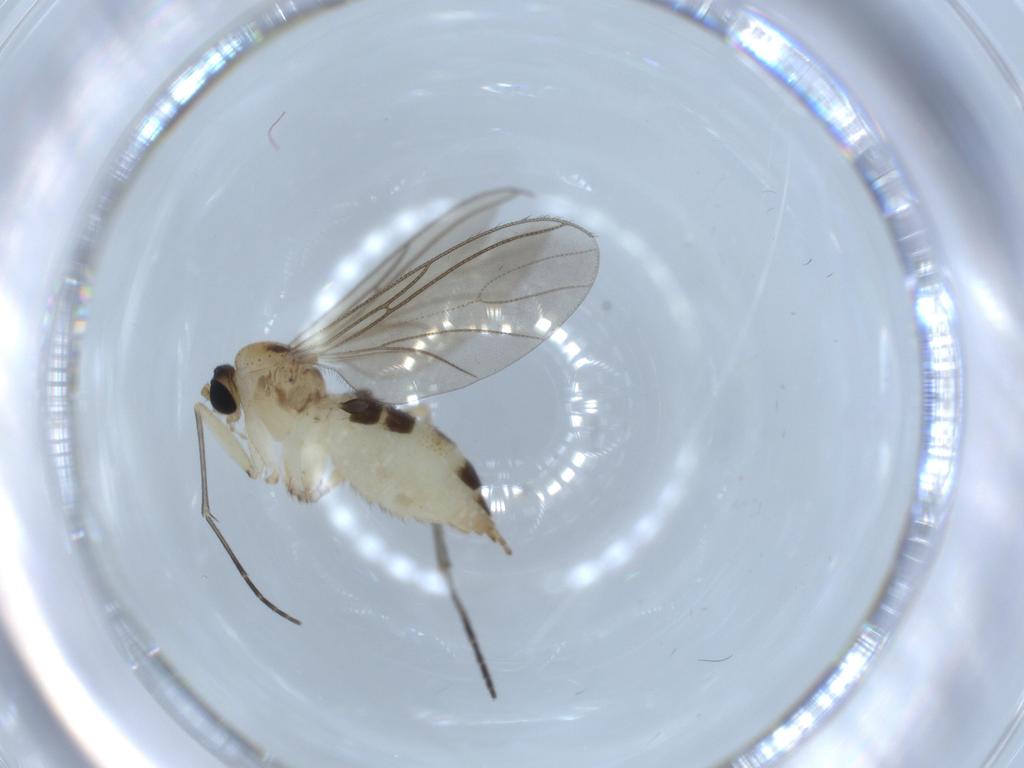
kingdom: Animalia
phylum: Arthropoda
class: Insecta
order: Diptera
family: Sciaridae
